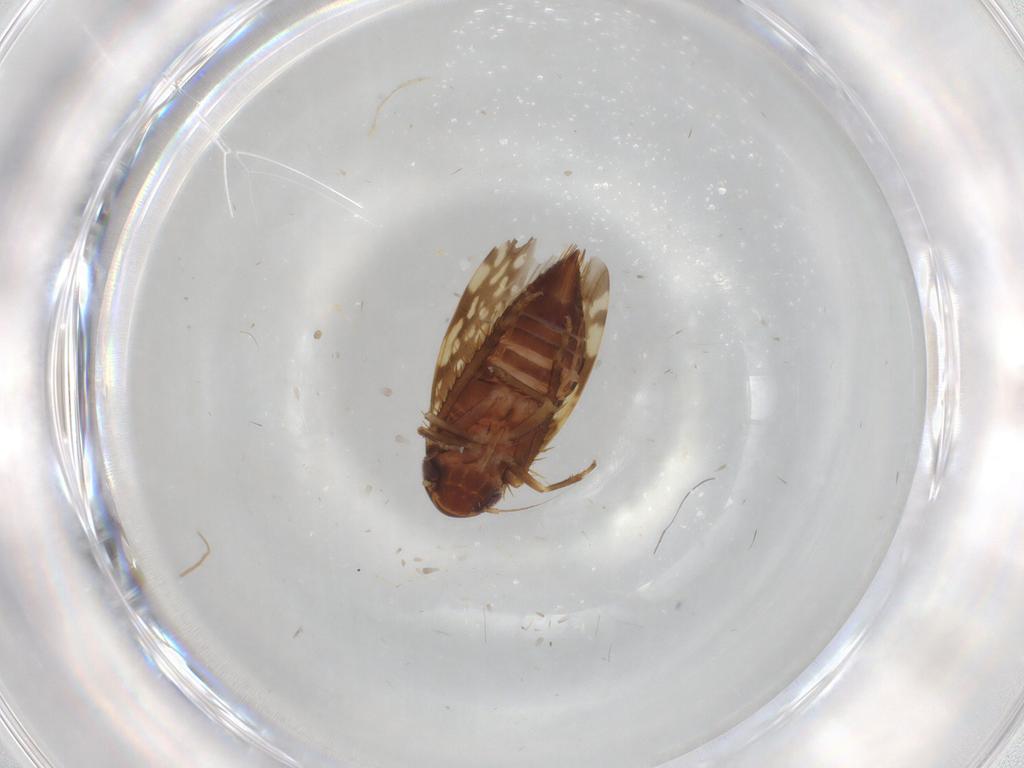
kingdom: Animalia
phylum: Arthropoda
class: Insecta
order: Hemiptera
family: Cicadellidae
